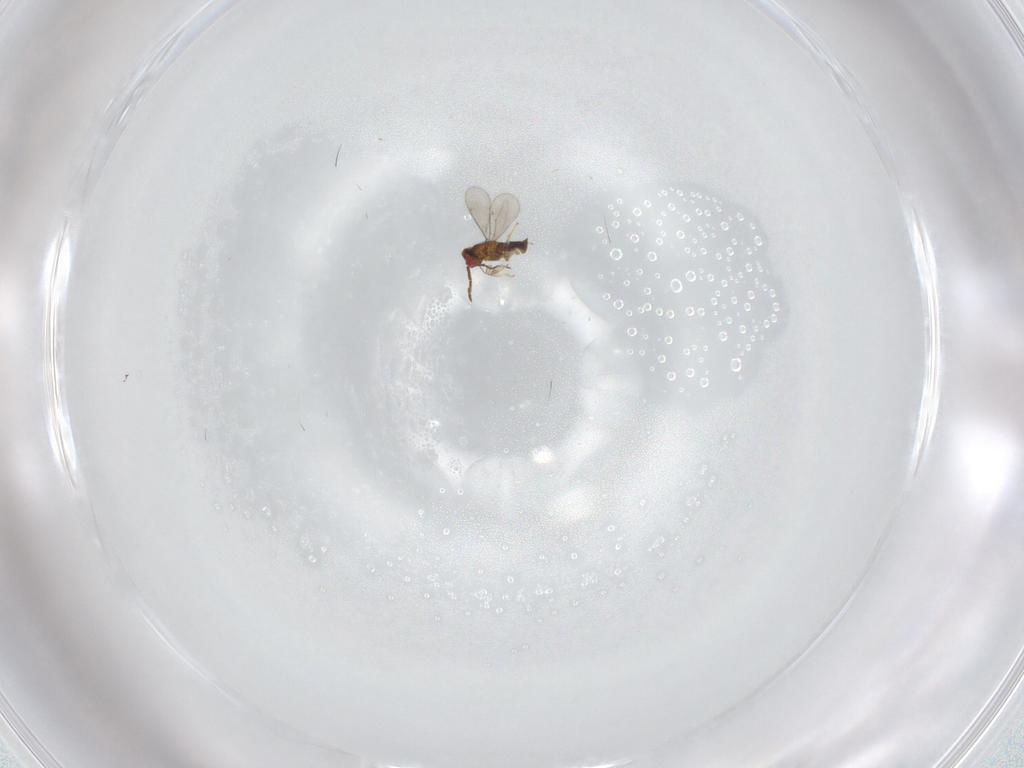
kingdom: Animalia
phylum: Arthropoda
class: Insecta
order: Hymenoptera
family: Aphelinidae
